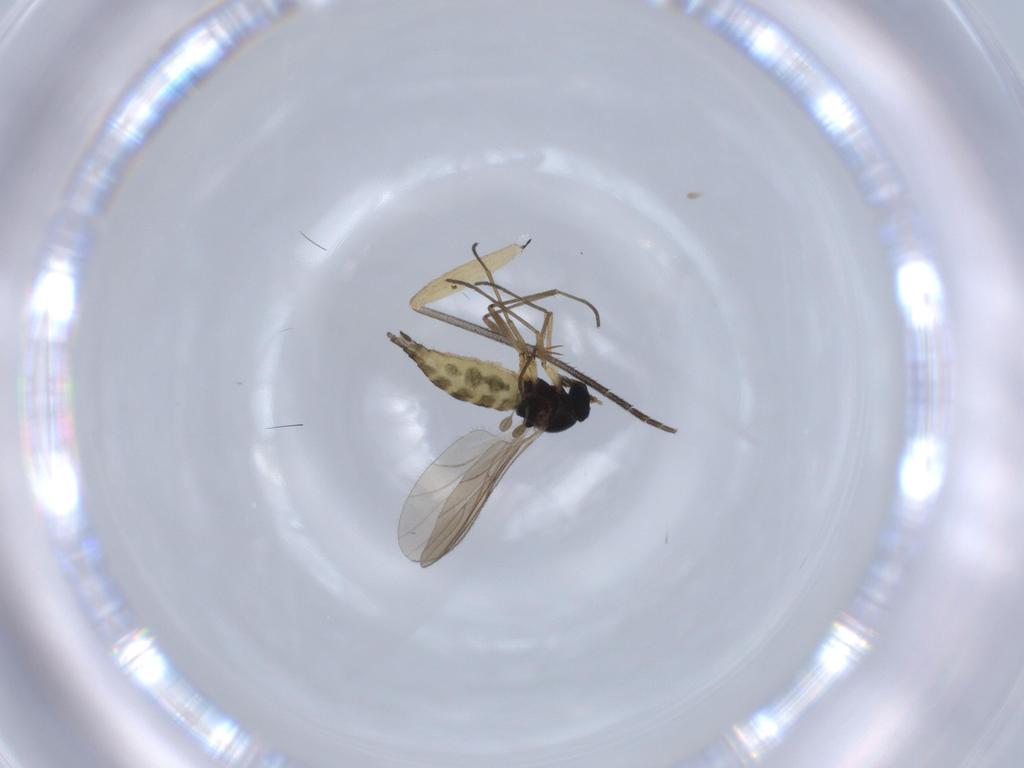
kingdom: Animalia
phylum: Arthropoda
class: Insecta
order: Diptera
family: Sciaridae
